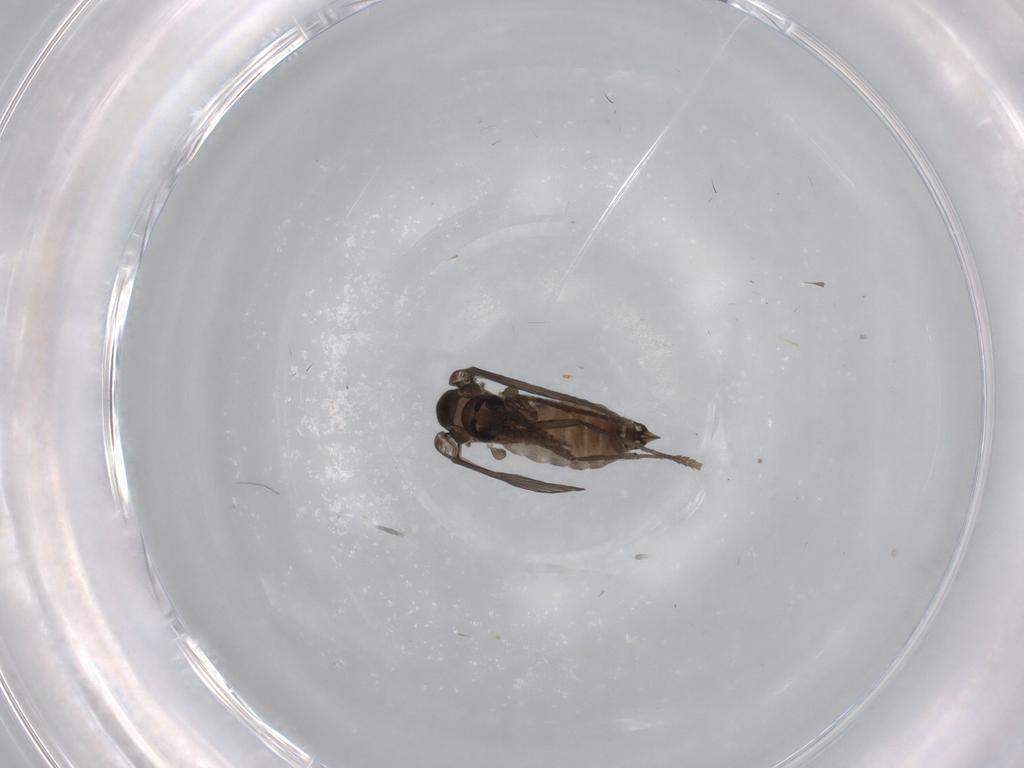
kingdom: Animalia
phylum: Arthropoda
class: Insecta
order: Diptera
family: Psychodidae
